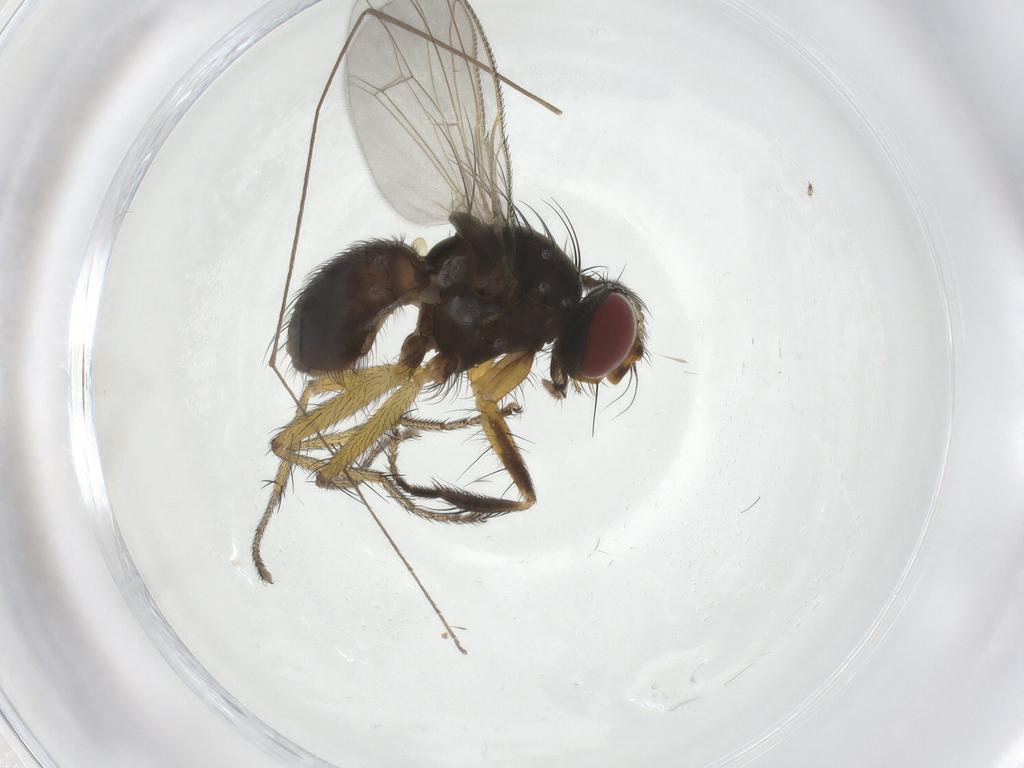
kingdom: Animalia
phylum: Arthropoda
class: Insecta
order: Diptera
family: Muscidae
